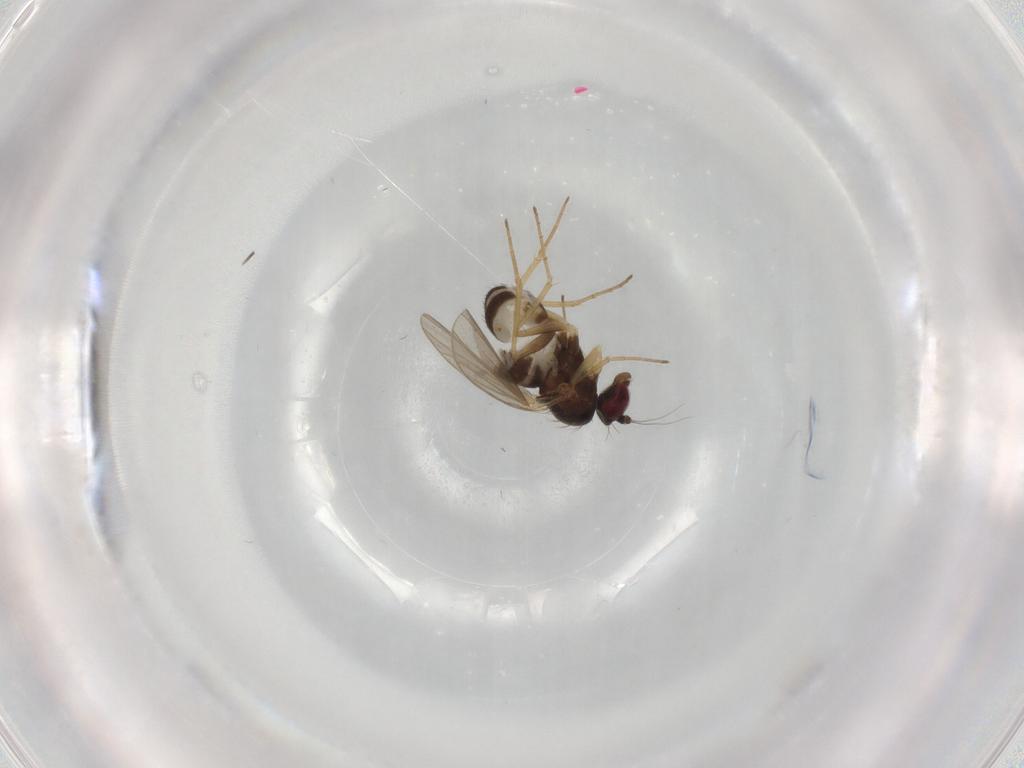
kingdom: Animalia
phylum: Arthropoda
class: Insecta
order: Diptera
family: Dolichopodidae
